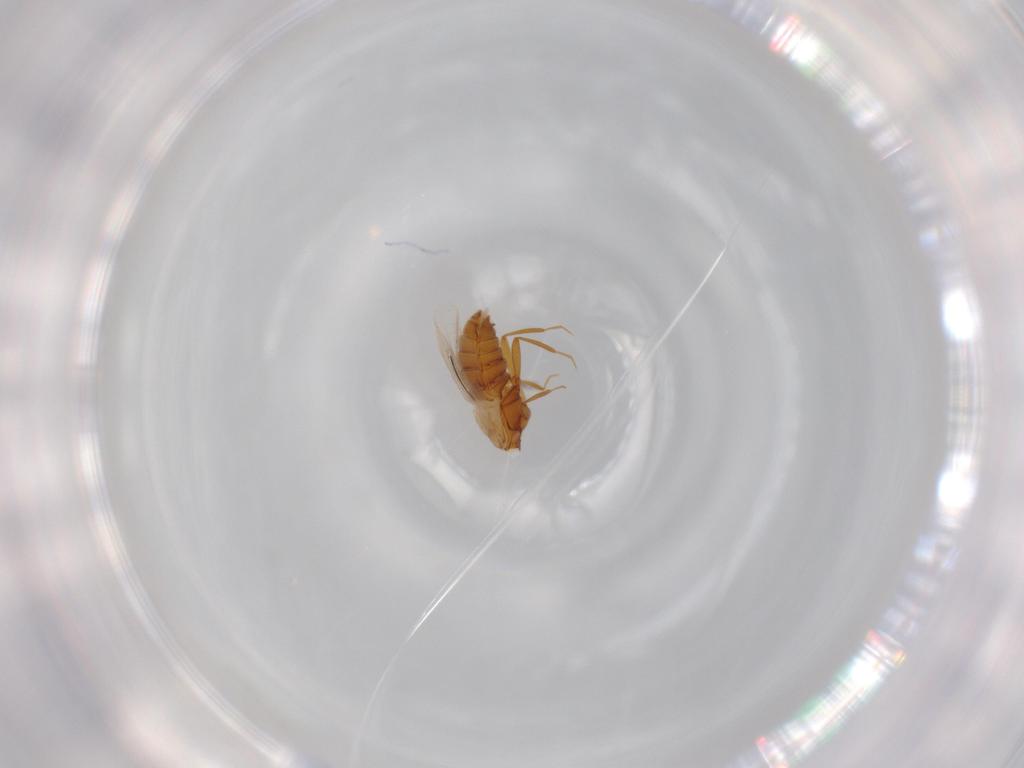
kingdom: Animalia
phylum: Arthropoda
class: Insecta
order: Coleoptera
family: Staphylinidae
